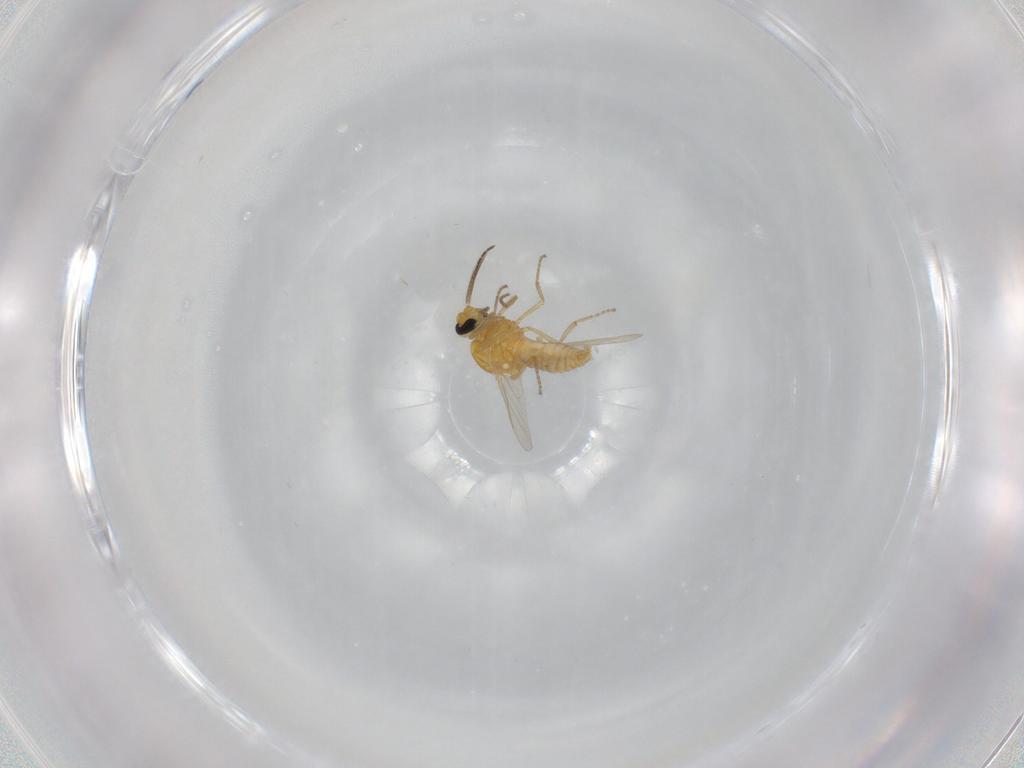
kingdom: Animalia
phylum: Arthropoda
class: Insecta
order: Diptera
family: Ceratopogonidae
